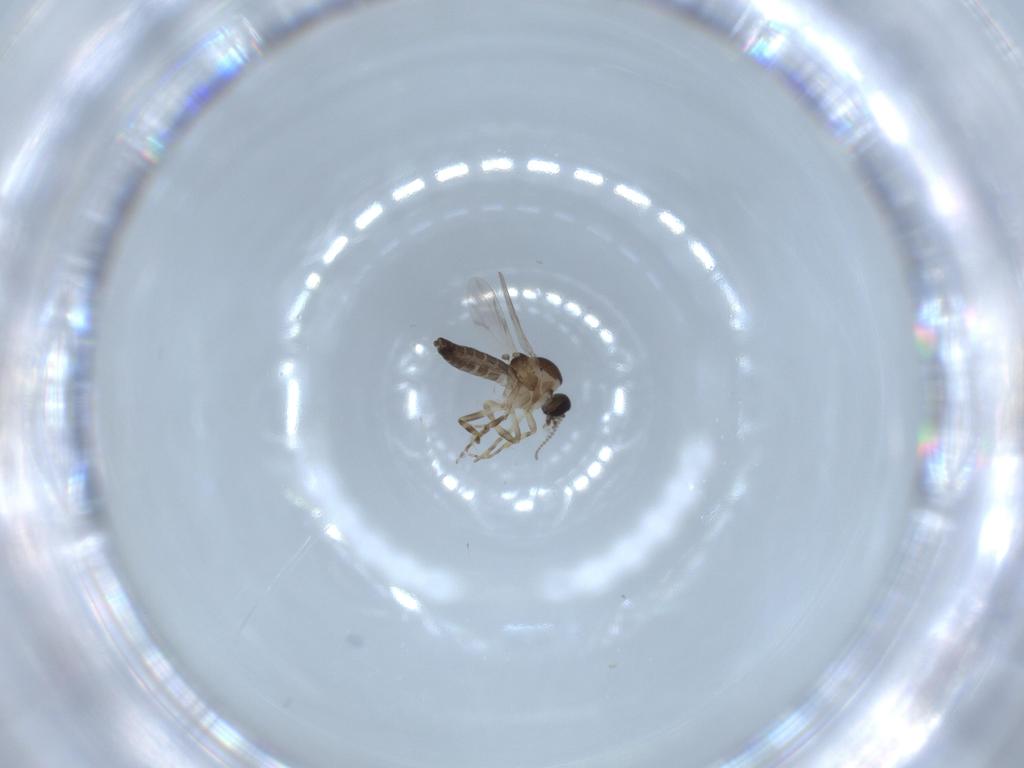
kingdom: Animalia
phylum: Arthropoda
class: Insecta
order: Diptera
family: Ceratopogonidae
